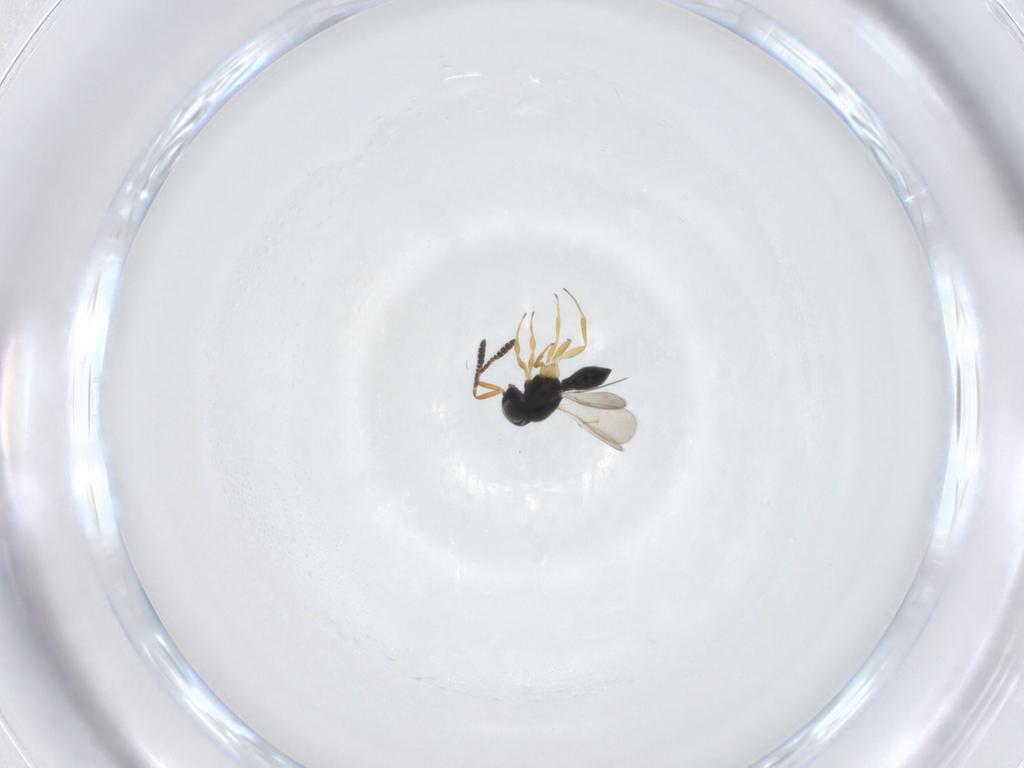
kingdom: Animalia
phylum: Arthropoda
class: Insecta
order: Hymenoptera
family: Scelionidae
